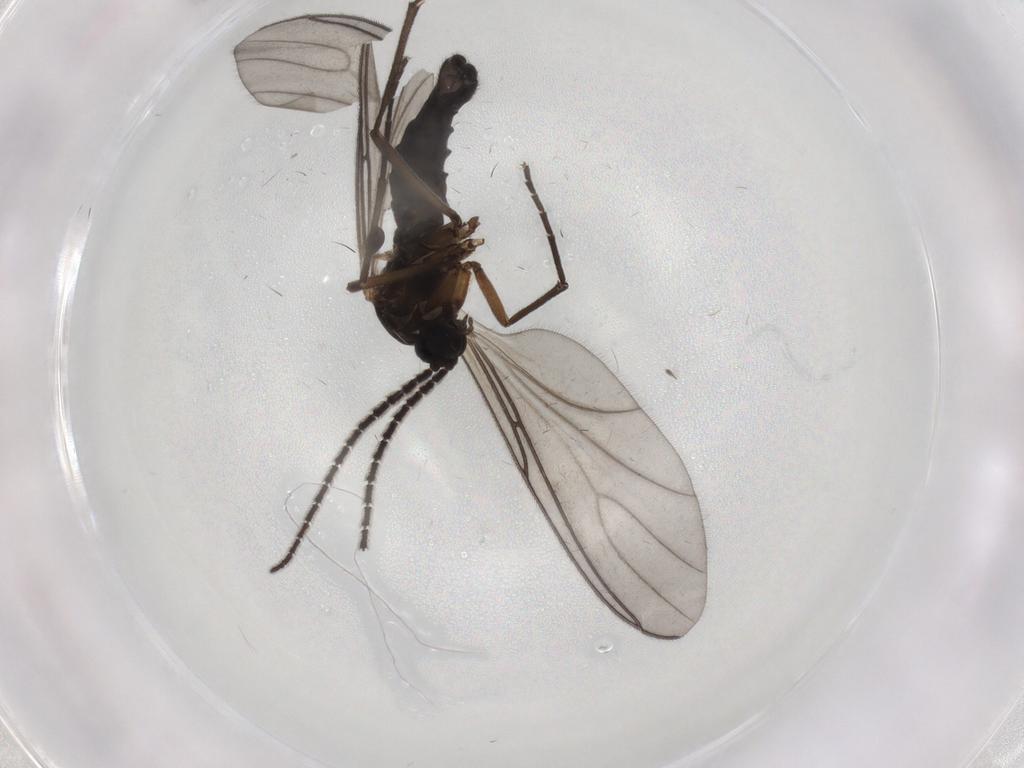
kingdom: Animalia
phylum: Arthropoda
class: Insecta
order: Diptera
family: Sciaridae
